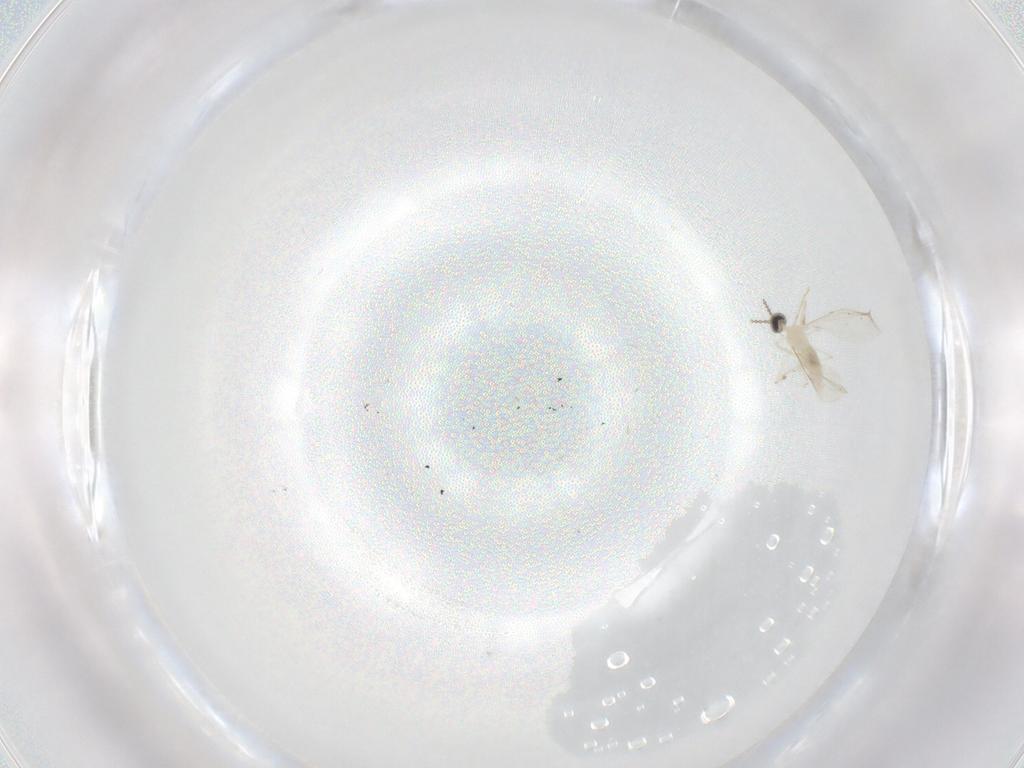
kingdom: Animalia
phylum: Arthropoda
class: Insecta
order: Diptera
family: Cecidomyiidae
